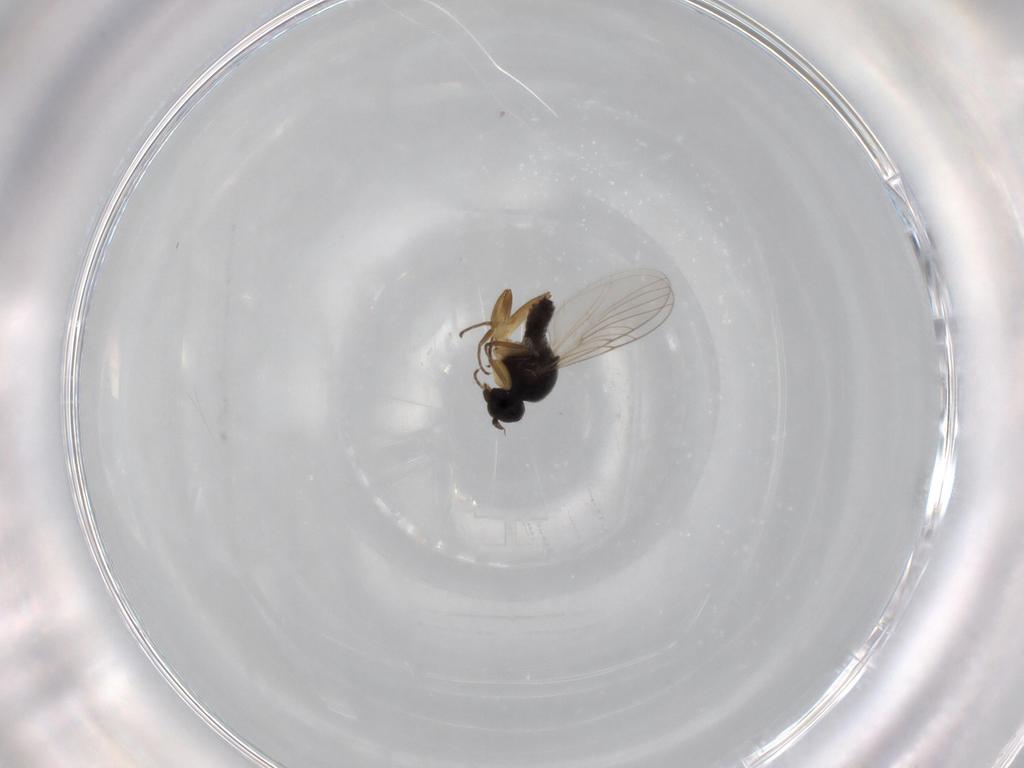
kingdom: Animalia
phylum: Arthropoda
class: Insecta
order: Diptera
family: Hybotidae
